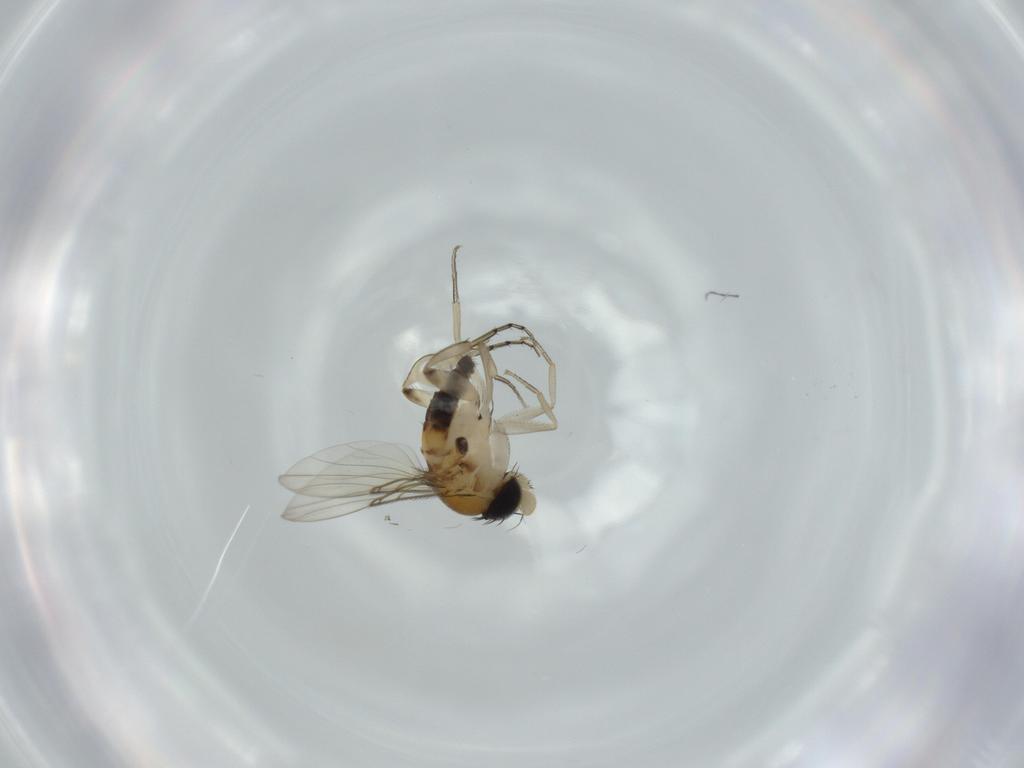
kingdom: Animalia
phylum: Arthropoda
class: Insecta
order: Diptera
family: Phoridae
